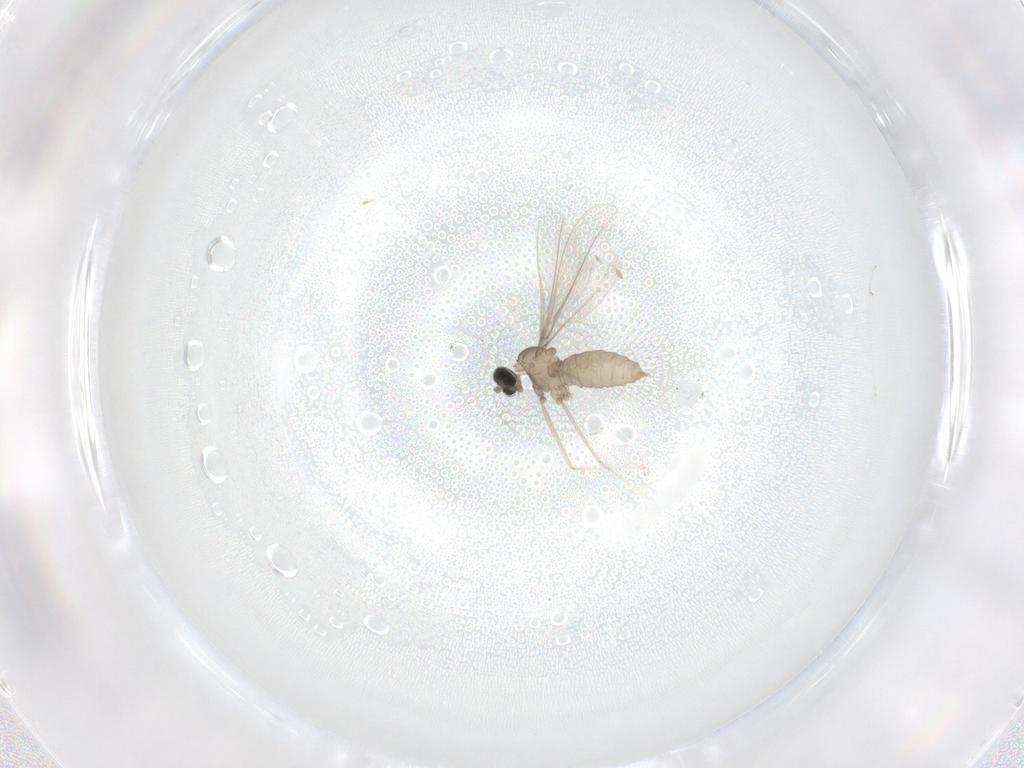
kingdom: Animalia
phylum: Arthropoda
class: Insecta
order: Diptera
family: Cecidomyiidae
